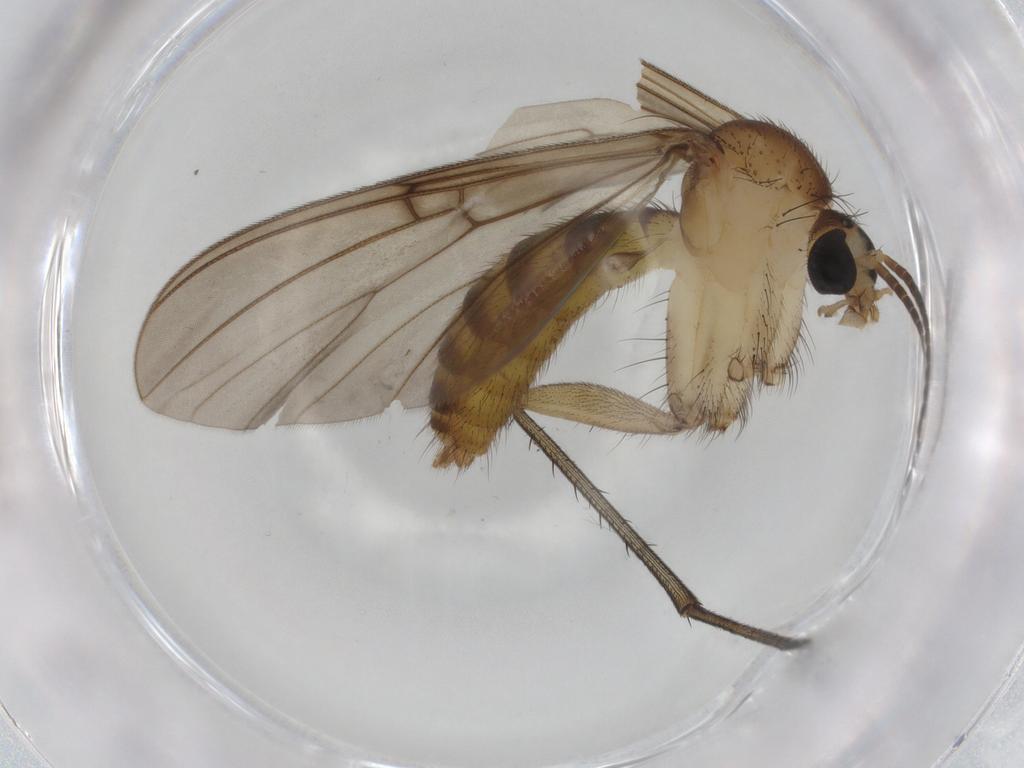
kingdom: Animalia
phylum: Arthropoda
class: Insecta
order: Diptera
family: Mycetophilidae
